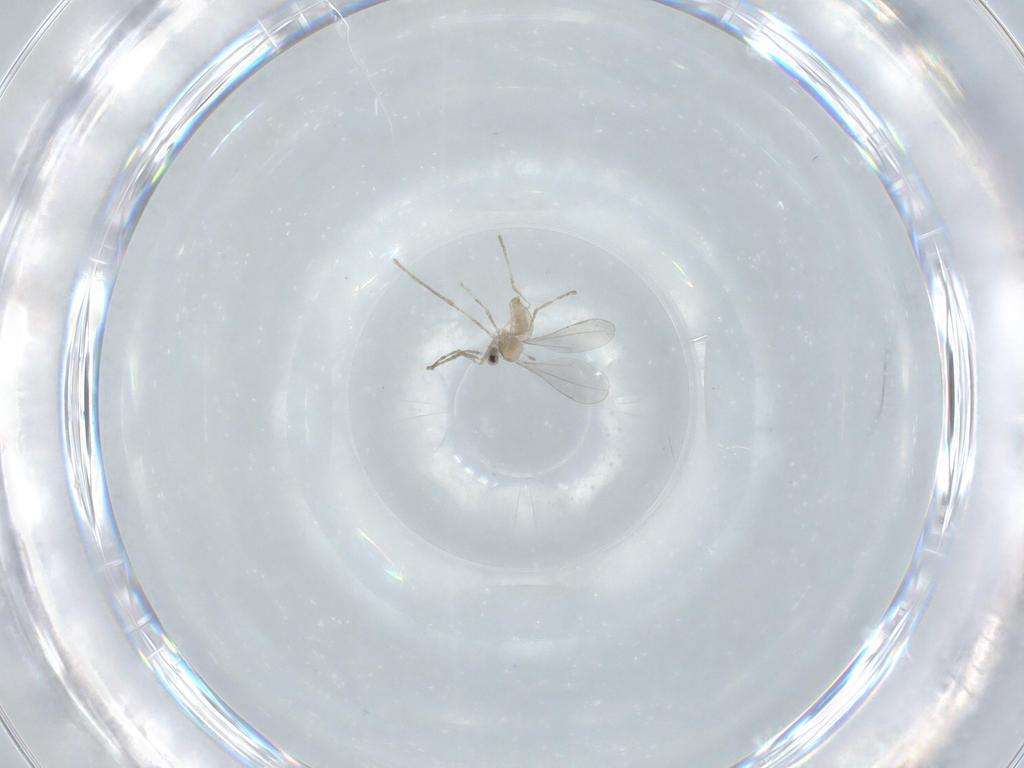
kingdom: Animalia
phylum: Arthropoda
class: Insecta
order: Diptera
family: Cecidomyiidae
